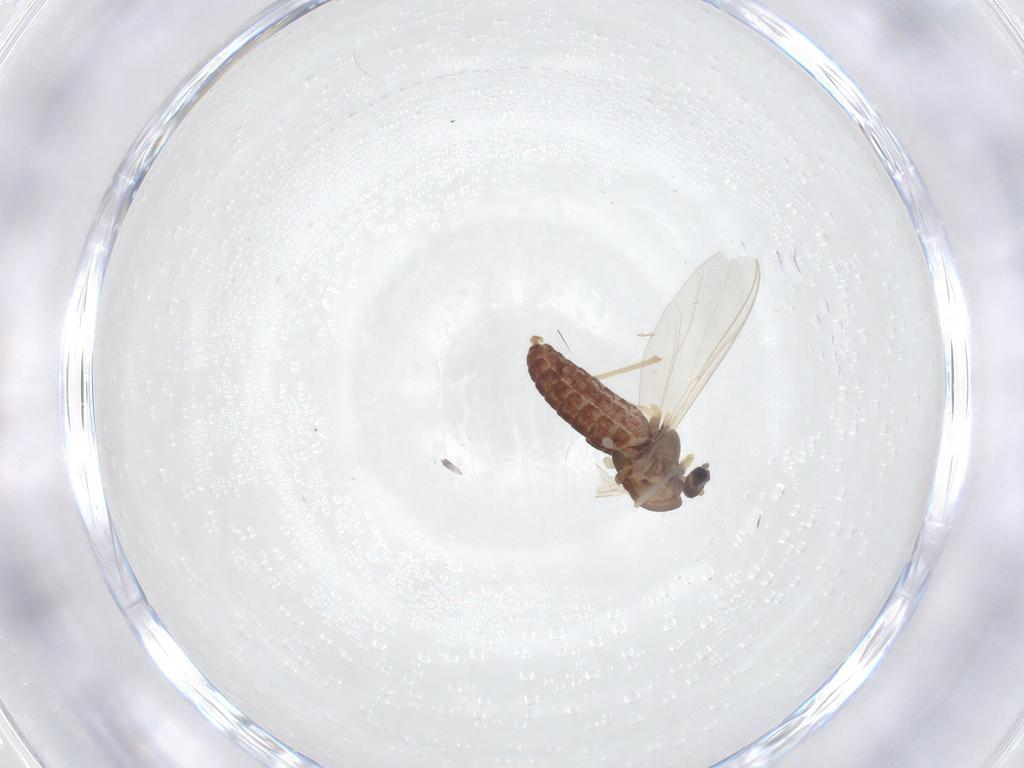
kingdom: Animalia
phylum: Arthropoda
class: Insecta
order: Diptera
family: Chironomidae
